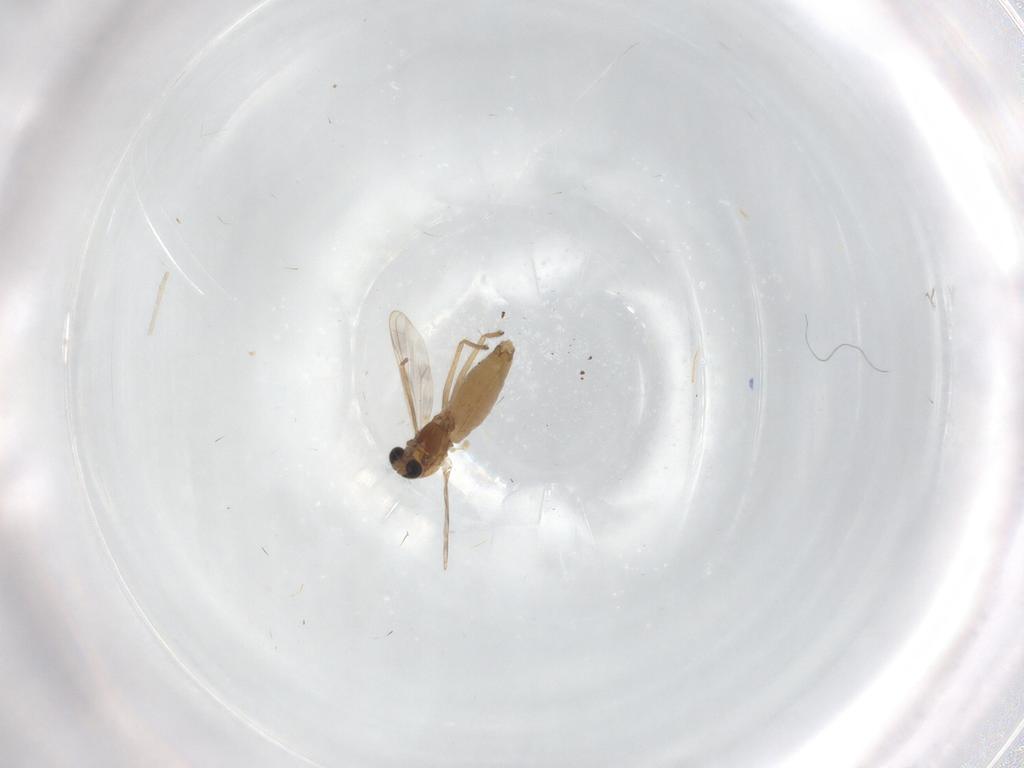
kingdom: Animalia
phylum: Arthropoda
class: Insecta
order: Diptera
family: Chironomidae
